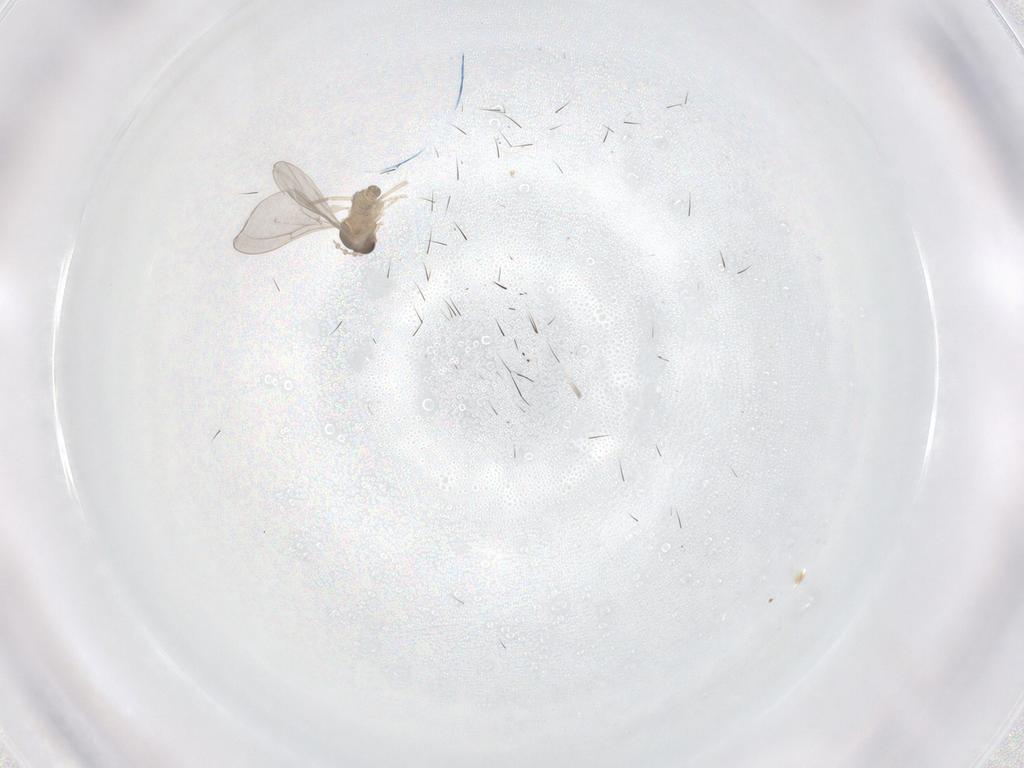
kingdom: Animalia
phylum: Arthropoda
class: Insecta
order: Diptera
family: Cecidomyiidae
